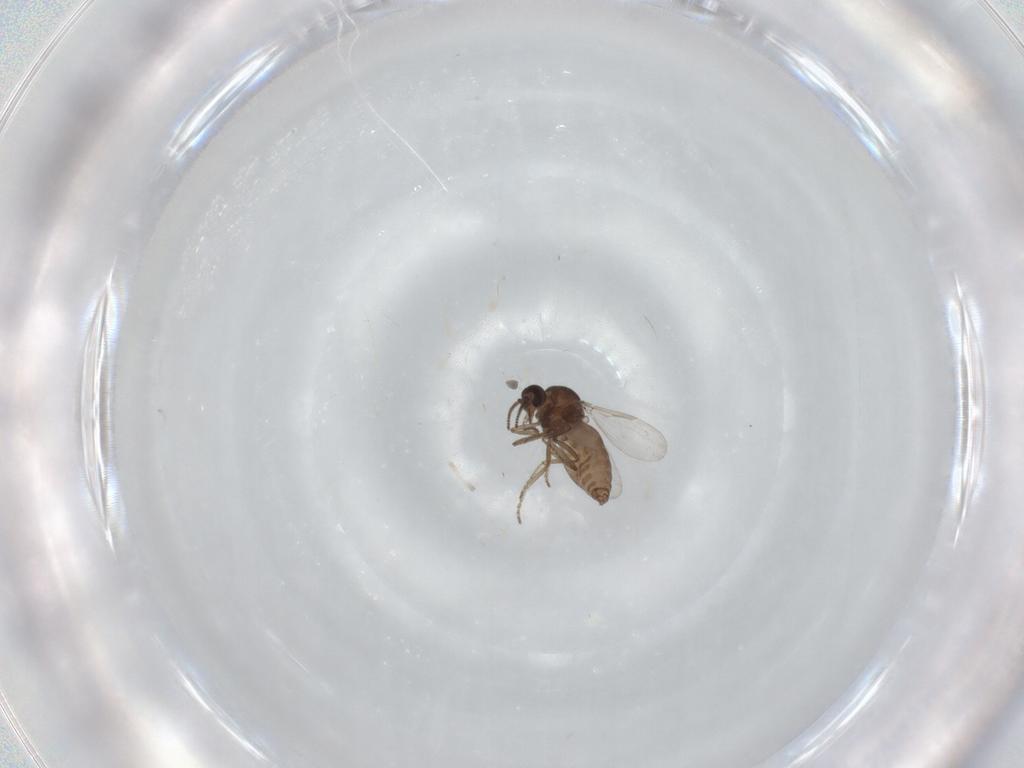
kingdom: Animalia
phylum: Arthropoda
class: Insecta
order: Diptera
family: Ceratopogonidae
